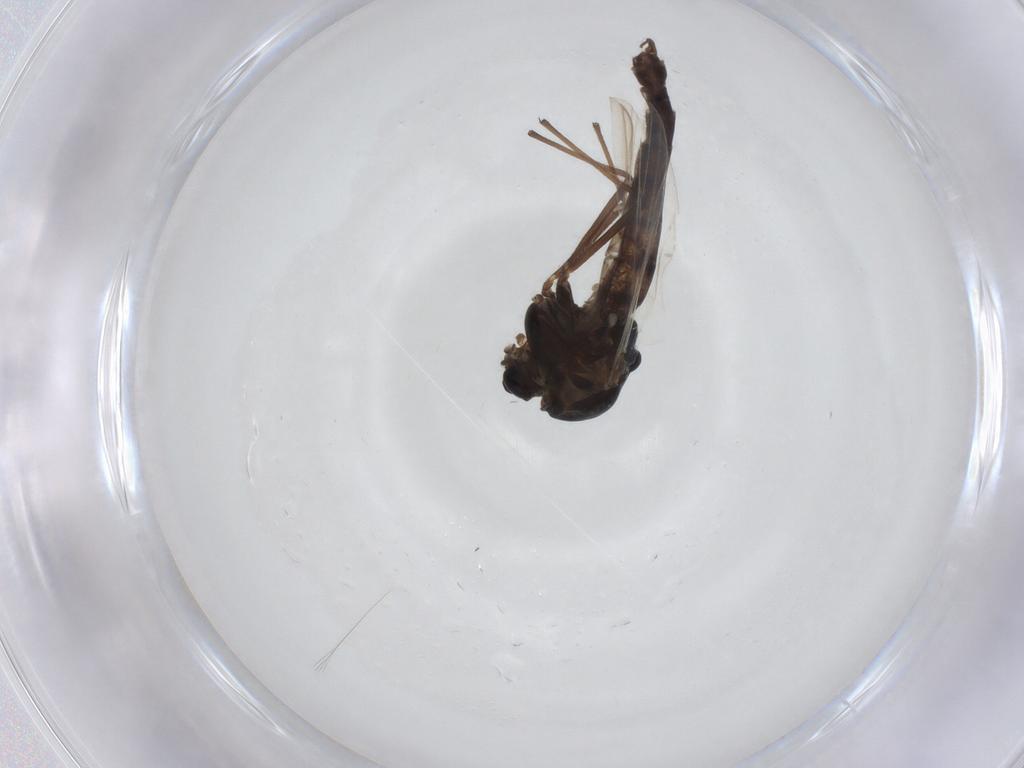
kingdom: Animalia
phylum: Arthropoda
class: Insecta
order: Diptera
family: Chironomidae
